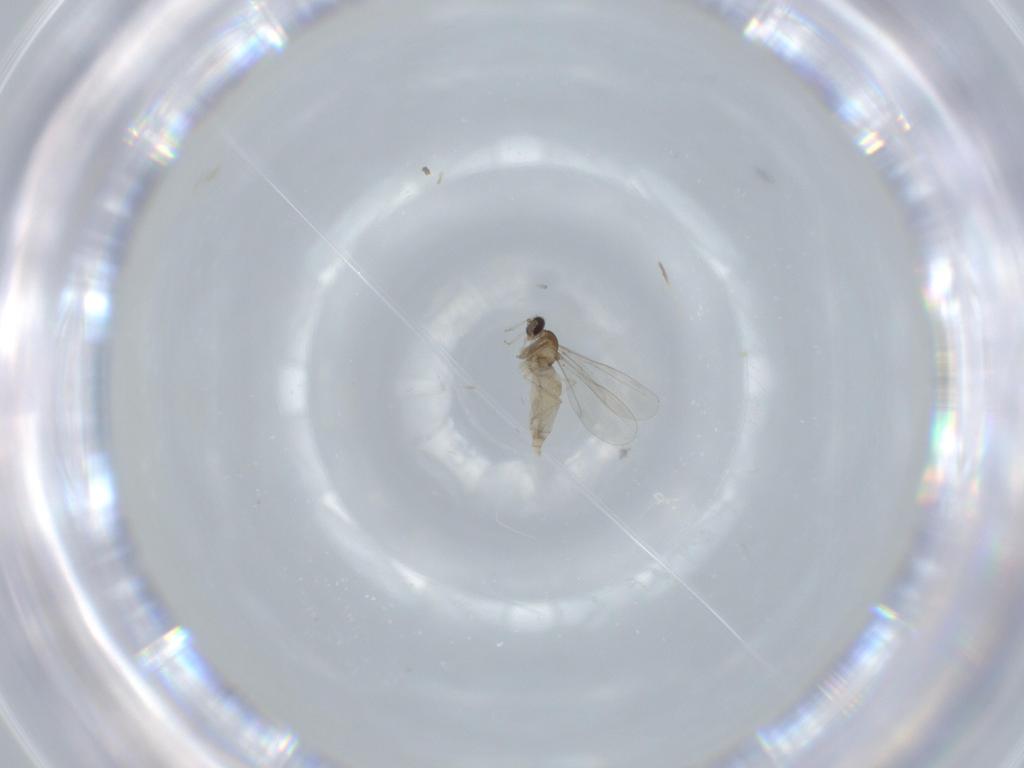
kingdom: Animalia
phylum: Arthropoda
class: Insecta
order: Diptera
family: Cecidomyiidae
